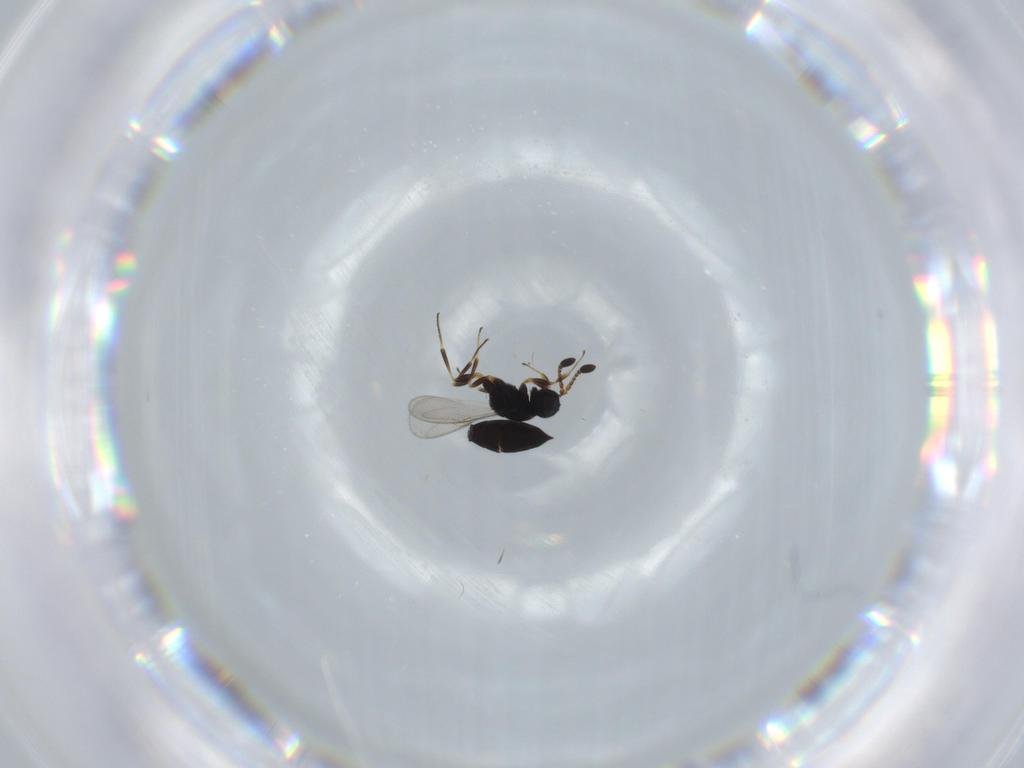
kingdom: Animalia
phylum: Arthropoda
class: Insecta
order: Hymenoptera
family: Scelionidae
